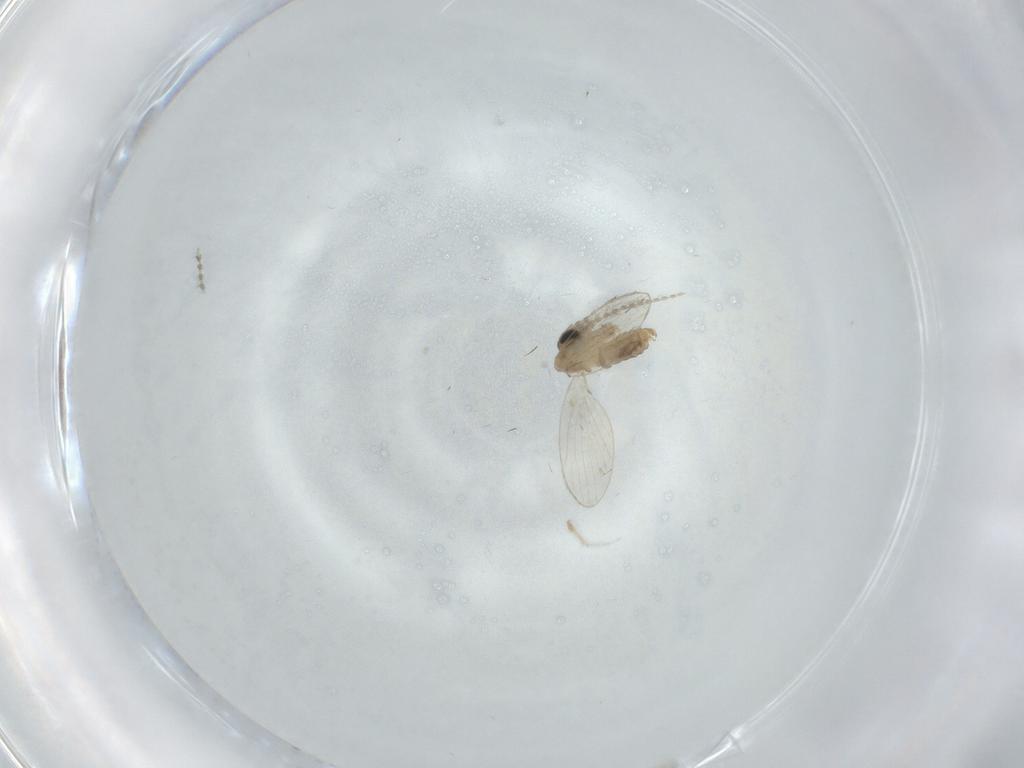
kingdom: Animalia
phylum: Arthropoda
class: Insecta
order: Diptera
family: Psychodidae
